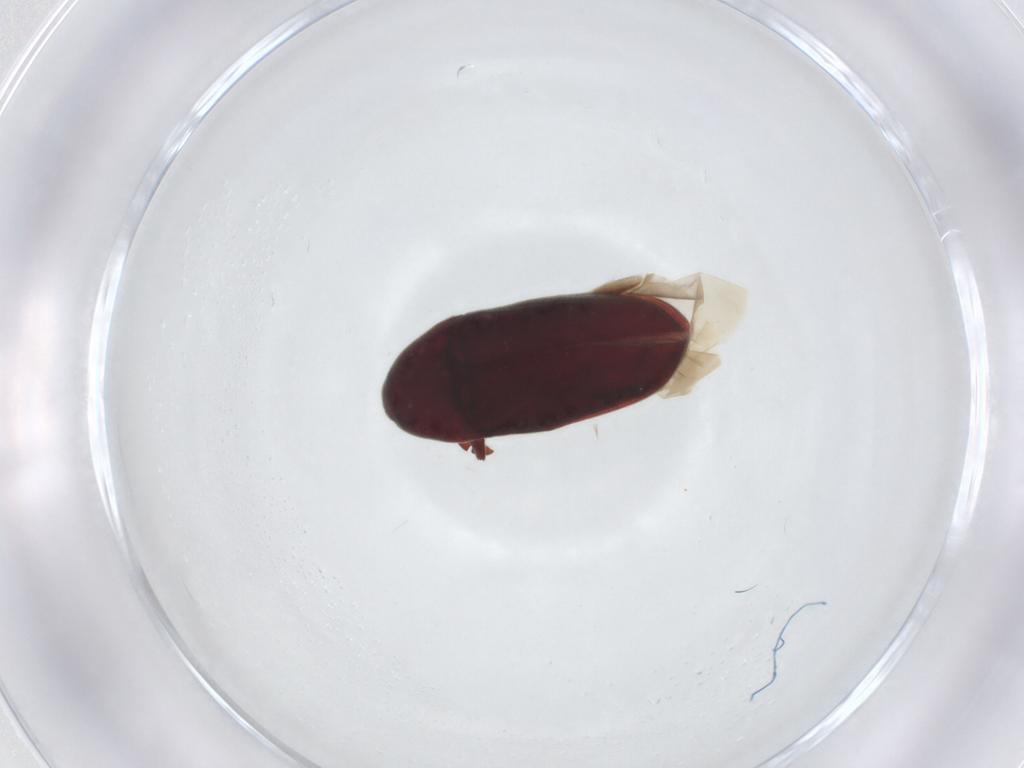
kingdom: Animalia
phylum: Arthropoda
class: Insecta
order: Coleoptera
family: Throscidae
